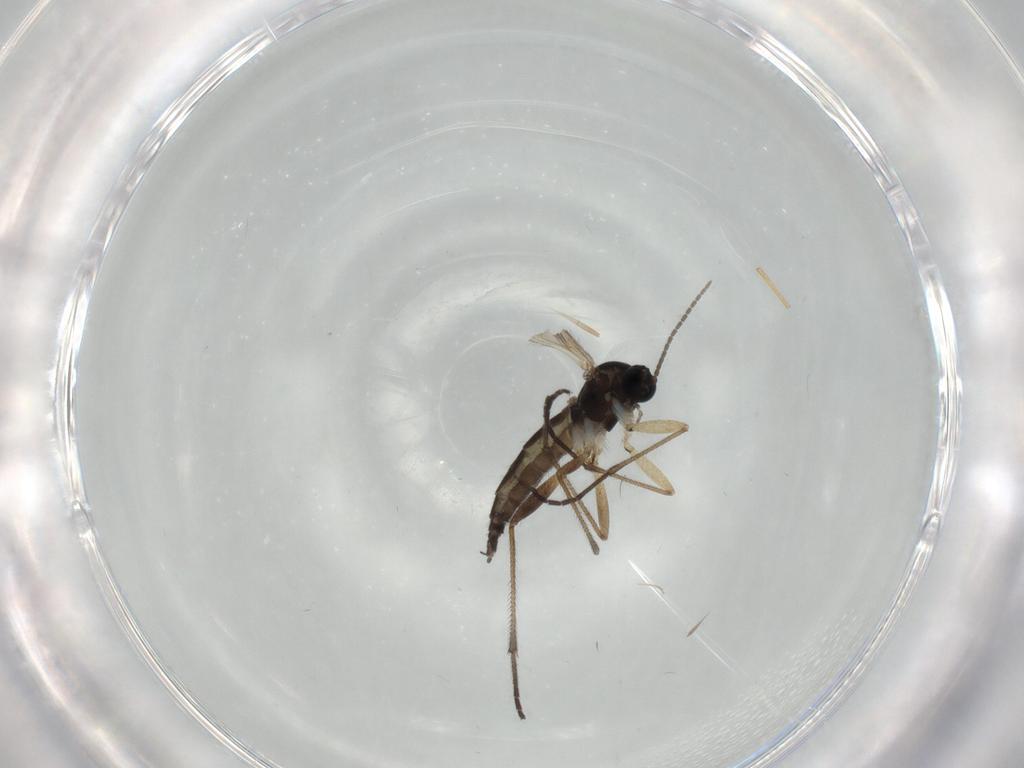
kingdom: Animalia
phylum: Arthropoda
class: Insecta
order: Diptera
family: Sciaridae
